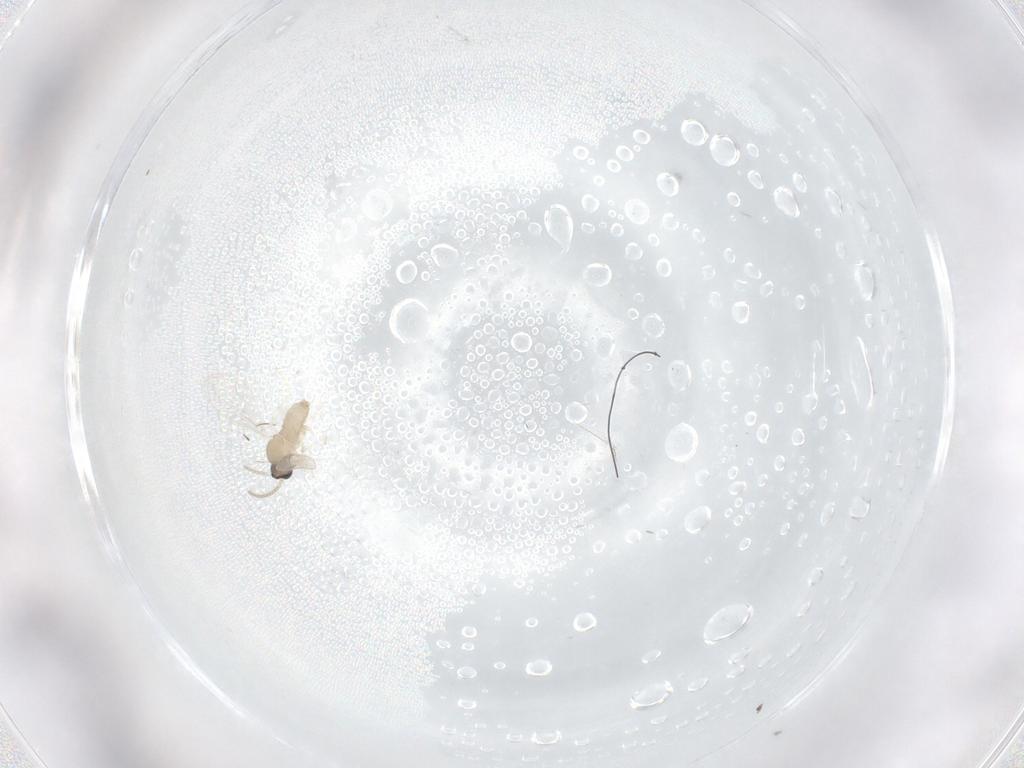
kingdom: Animalia
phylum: Arthropoda
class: Insecta
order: Diptera
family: Cecidomyiidae
